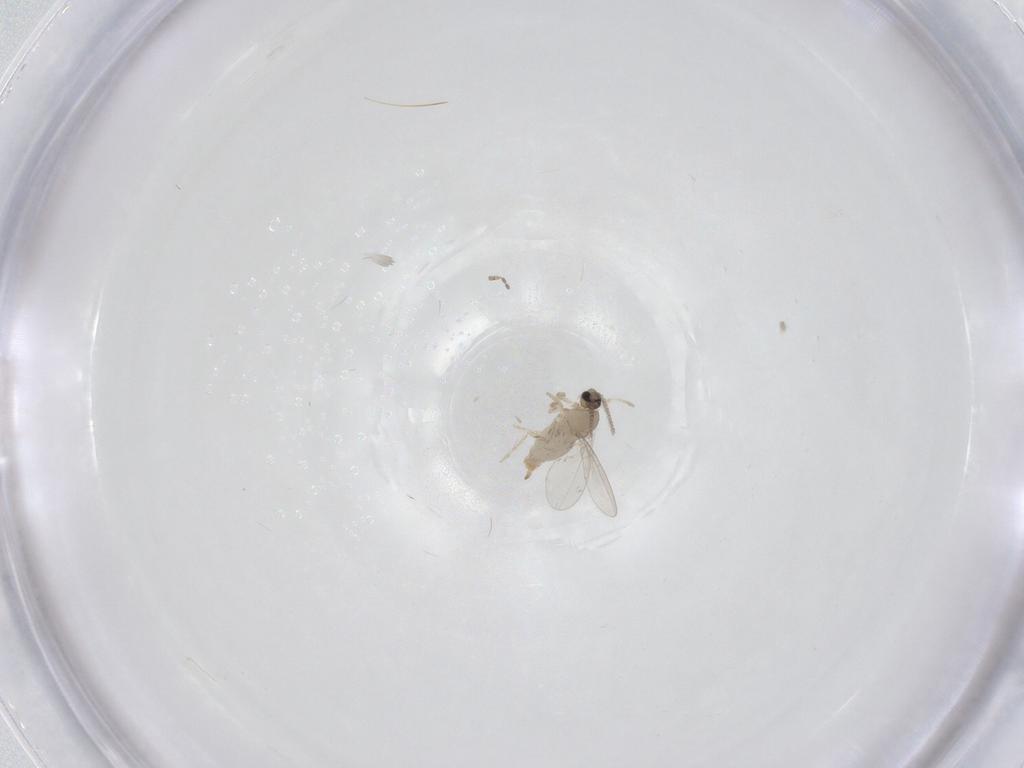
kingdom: Animalia
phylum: Arthropoda
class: Insecta
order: Diptera
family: Cecidomyiidae
